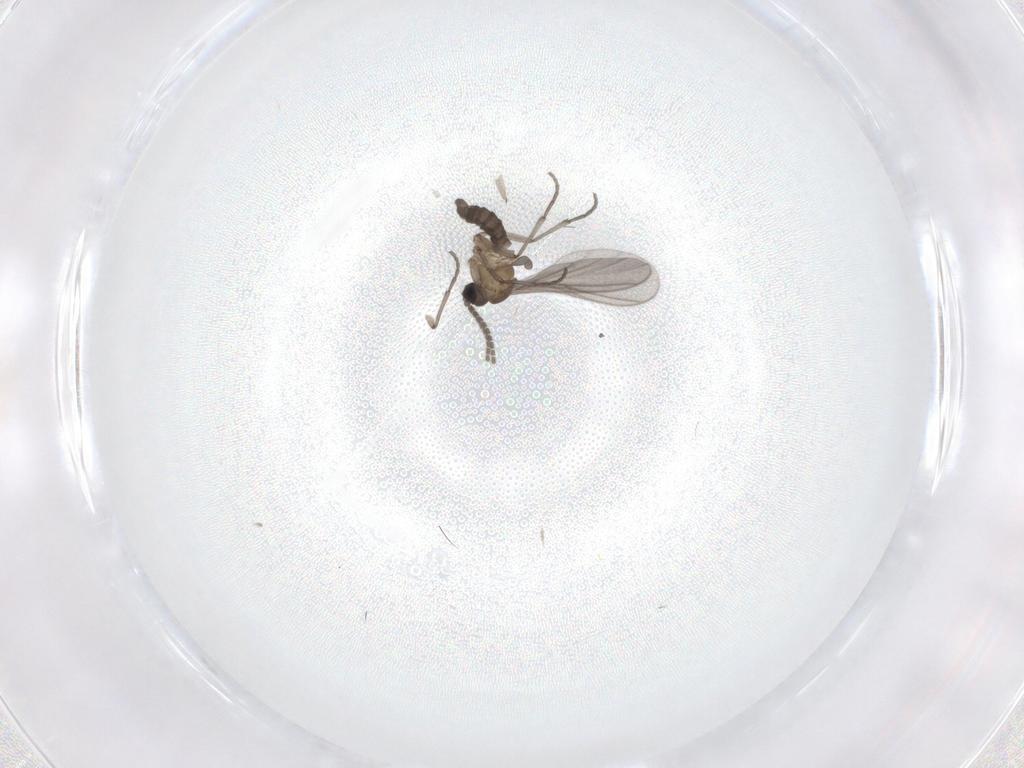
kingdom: Animalia
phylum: Arthropoda
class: Insecta
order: Diptera
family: Sciaridae
